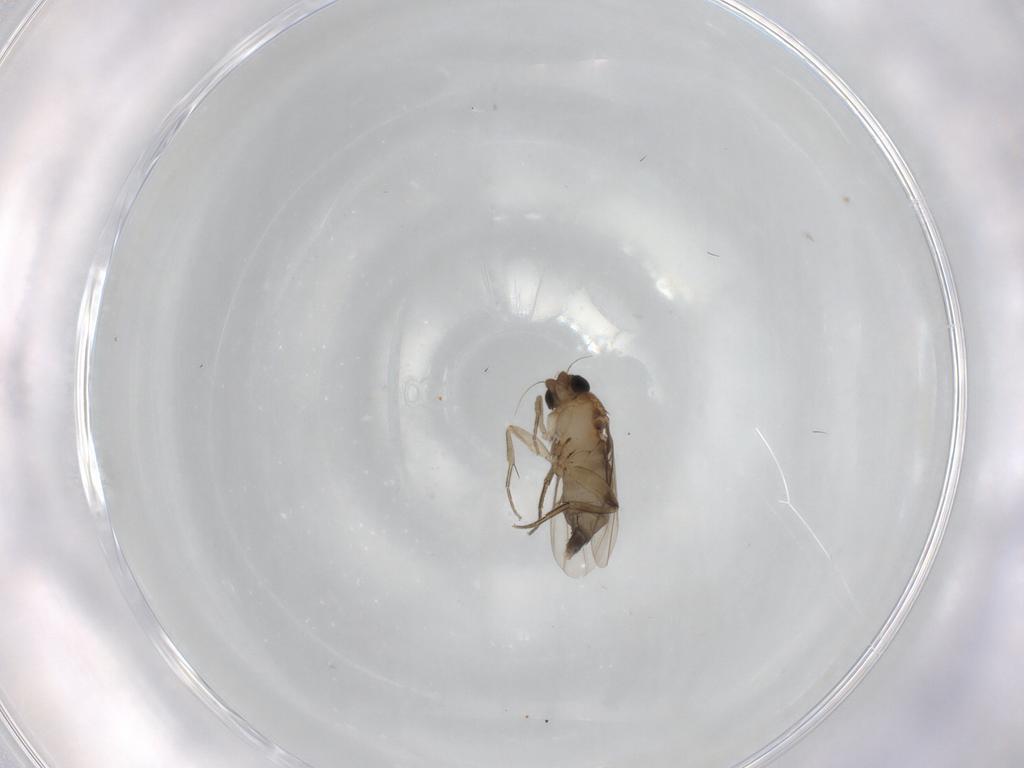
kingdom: Animalia
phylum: Arthropoda
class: Insecta
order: Diptera
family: Phoridae
